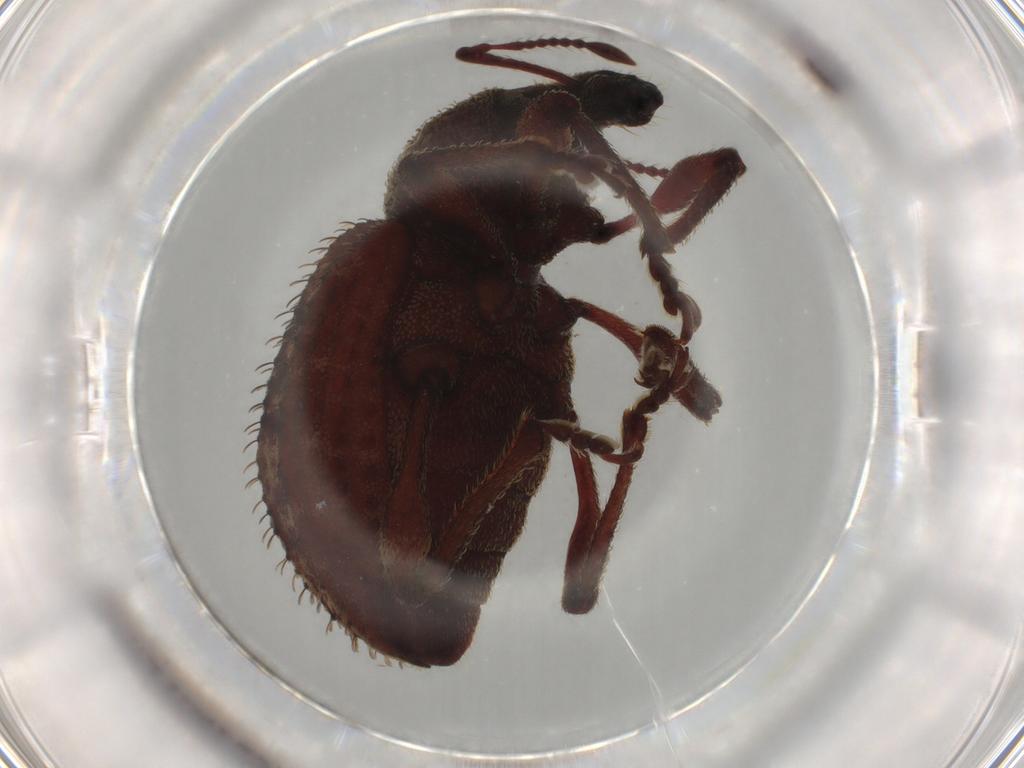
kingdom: Animalia
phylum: Arthropoda
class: Insecta
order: Coleoptera
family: Curculionidae
